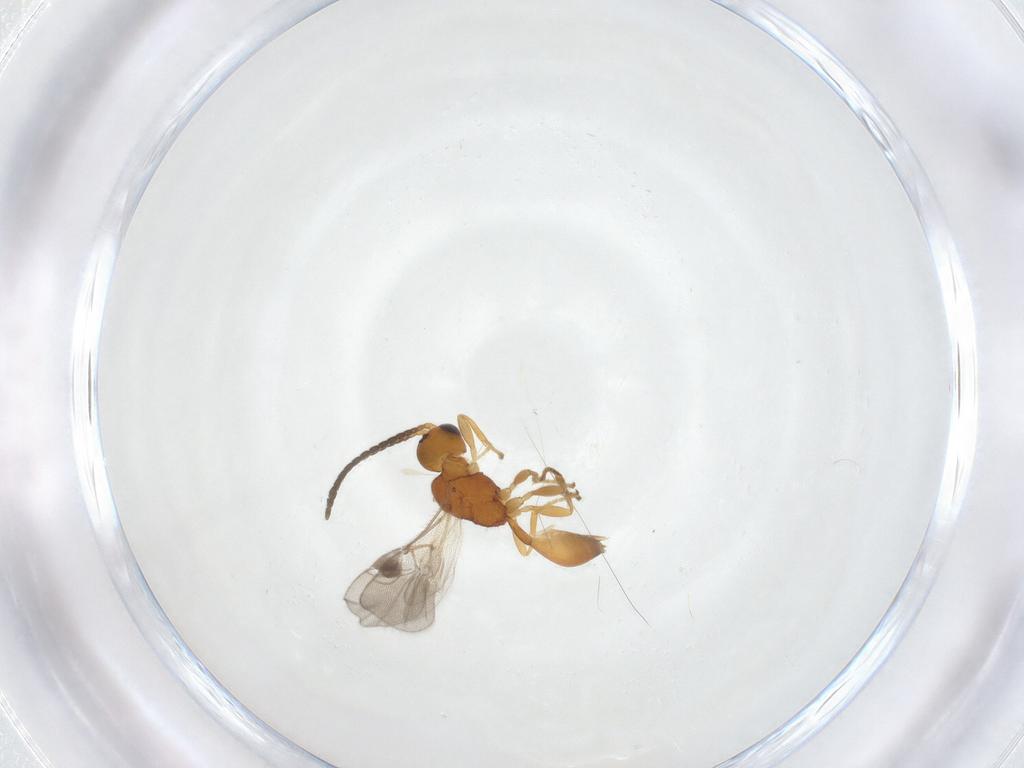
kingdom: Animalia
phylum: Arthropoda
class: Insecta
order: Hymenoptera
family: Braconidae
